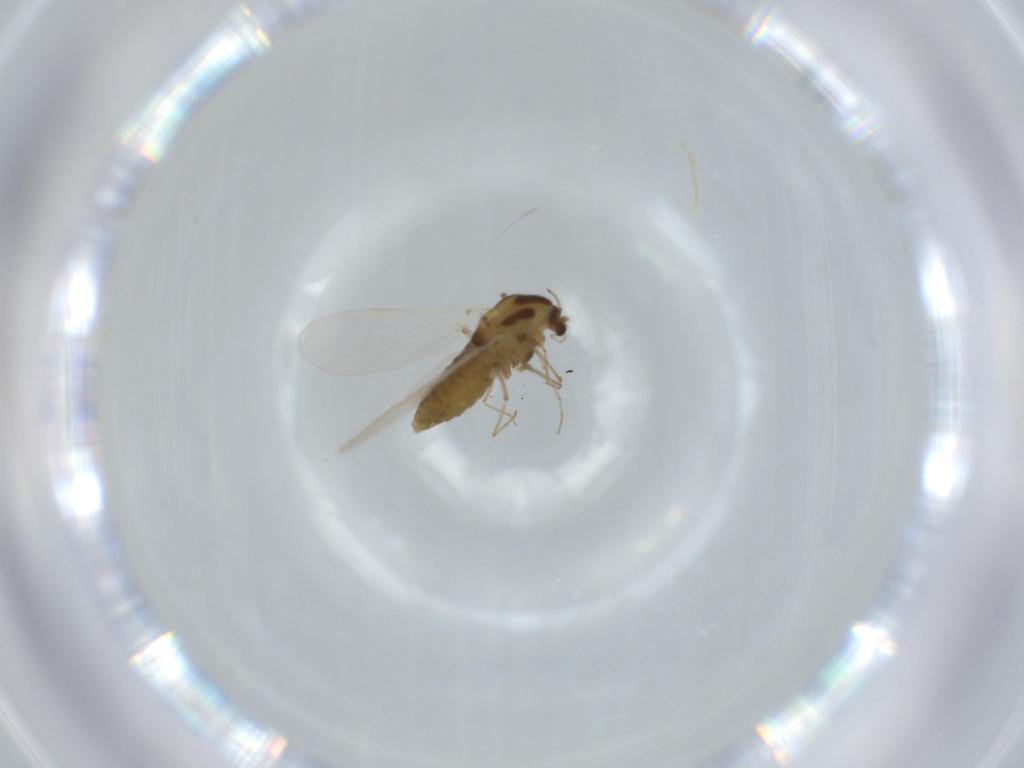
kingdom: Animalia
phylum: Arthropoda
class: Insecta
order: Diptera
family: Chironomidae
